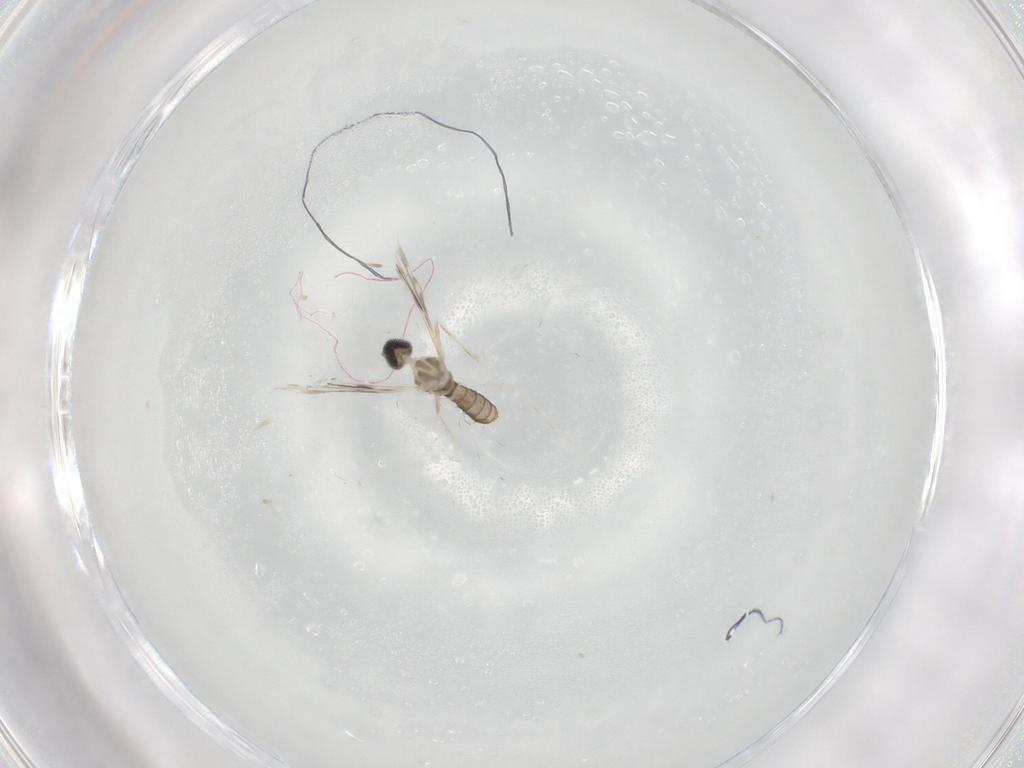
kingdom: Animalia
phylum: Arthropoda
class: Insecta
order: Diptera
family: Cecidomyiidae
